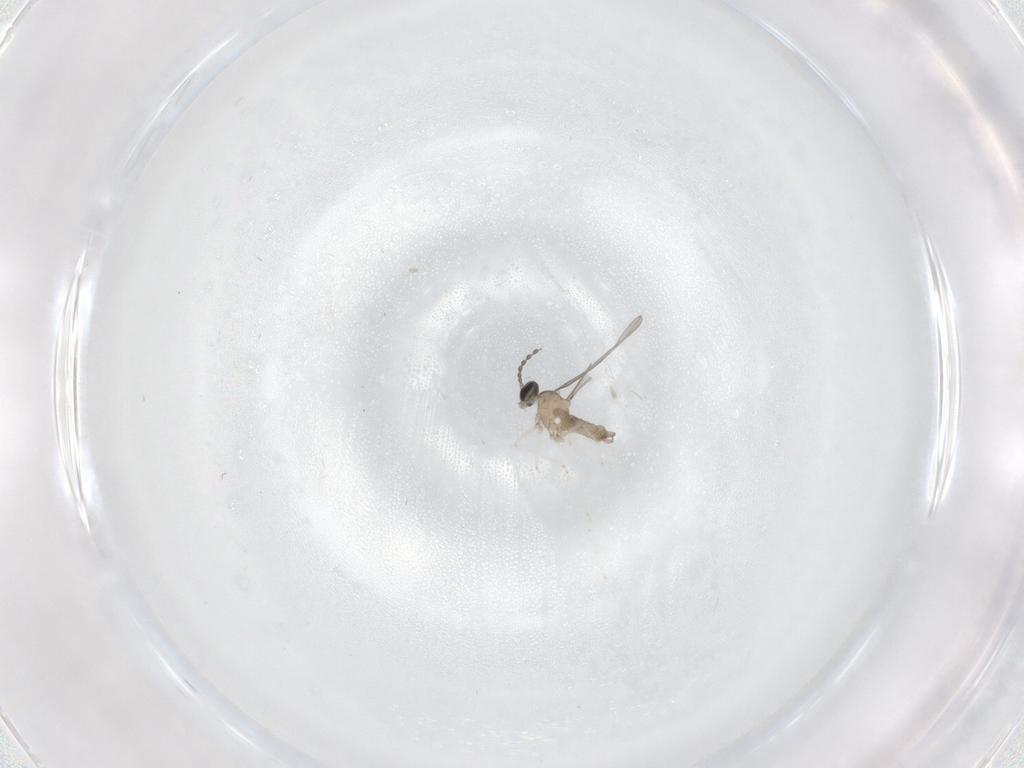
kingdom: Animalia
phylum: Arthropoda
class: Insecta
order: Diptera
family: Cecidomyiidae
